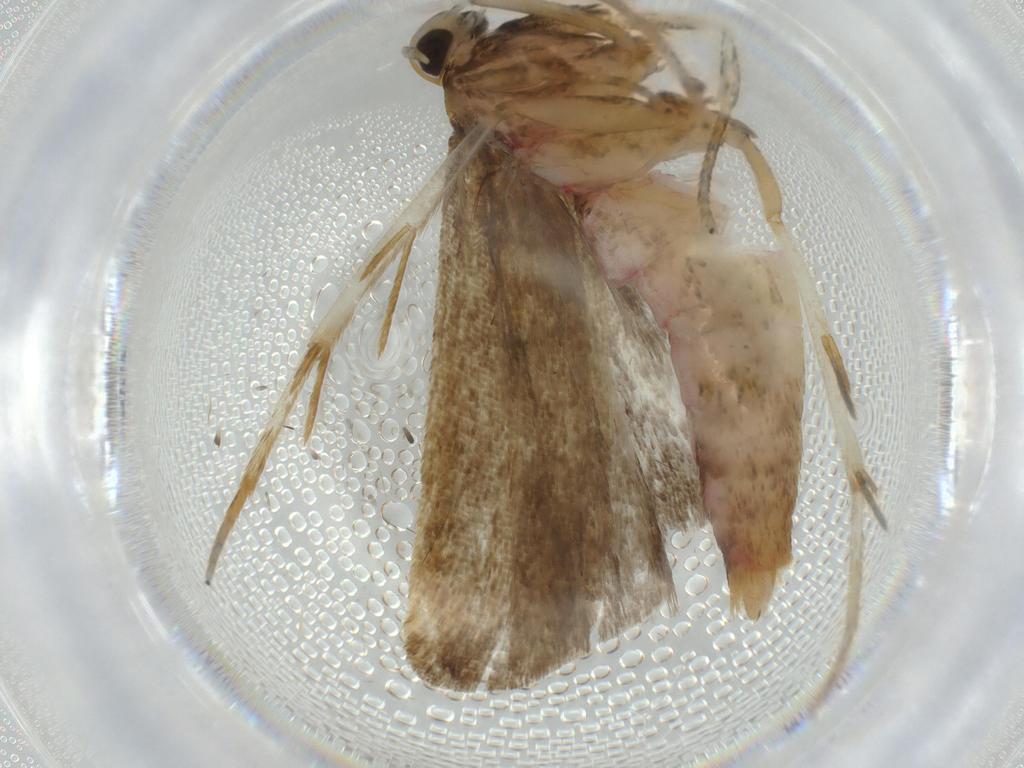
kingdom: Animalia
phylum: Arthropoda
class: Insecta
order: Lepidoptera
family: Autostichidae
